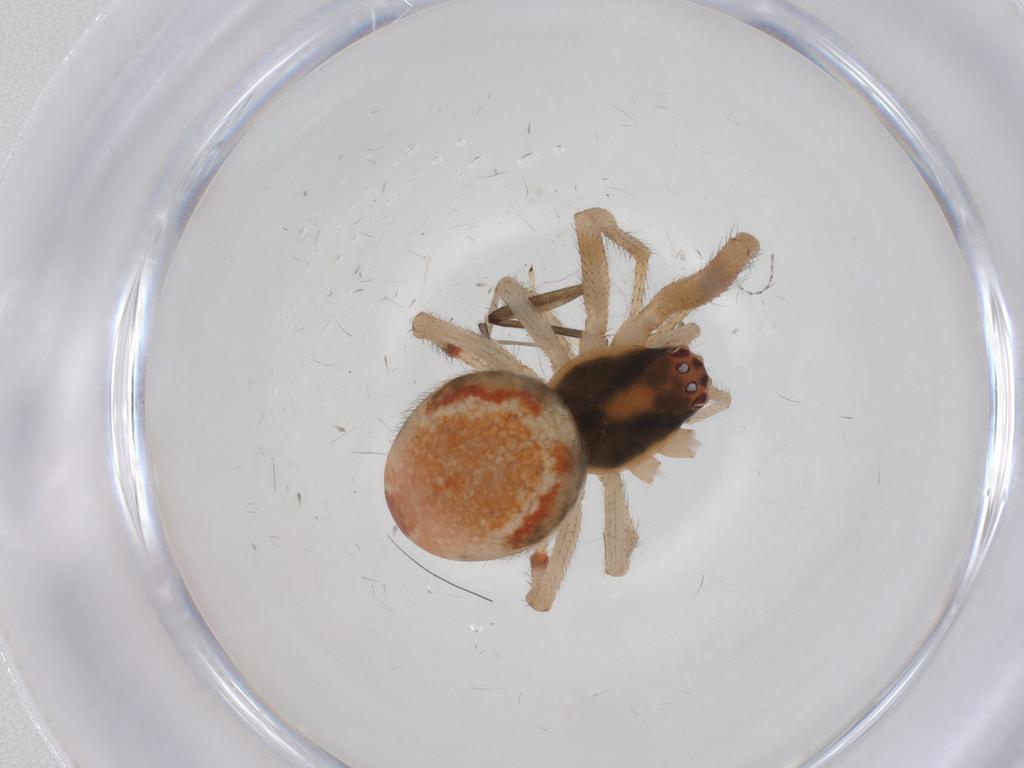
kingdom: Animalia
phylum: Arthropoda
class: Arachnida
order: Araneae
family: Theridiidae
